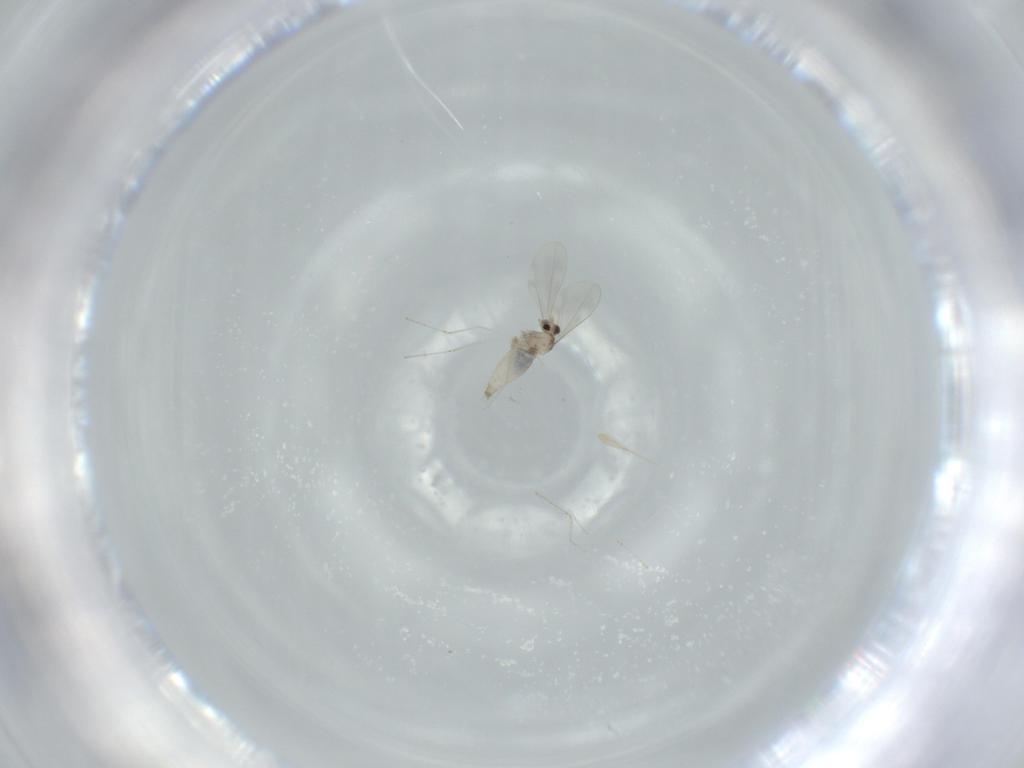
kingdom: Animalia
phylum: Arthropoda
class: Insecta
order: Diptera
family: Cecidomyiidae
